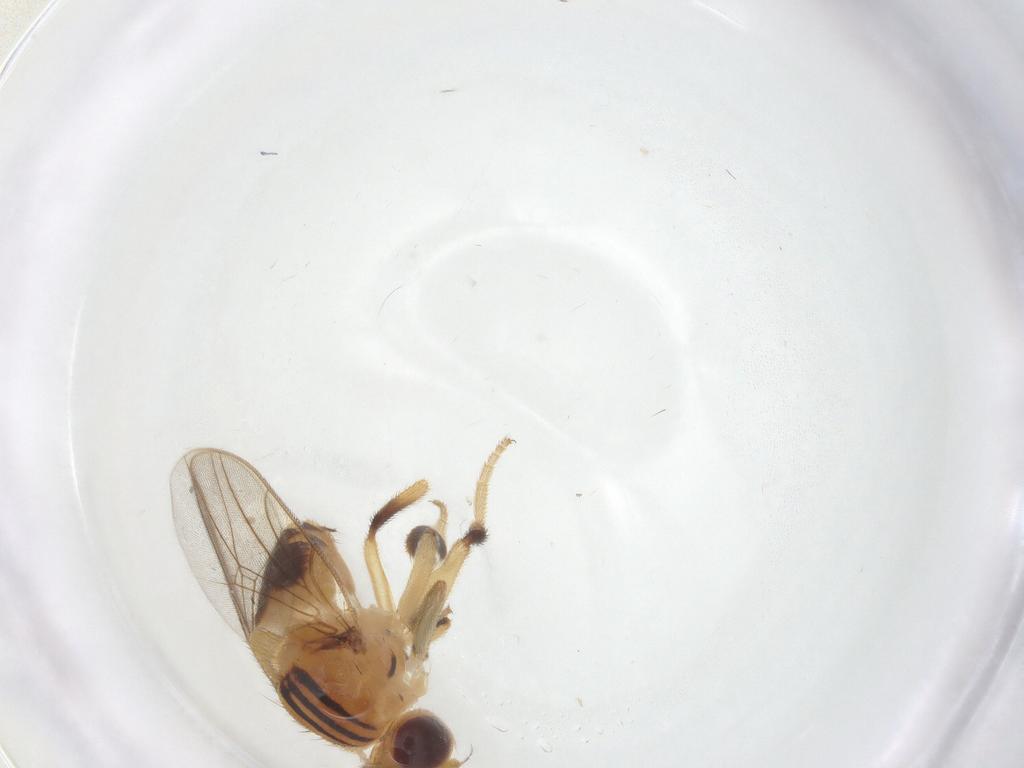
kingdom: Animalia
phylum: Arthropoda
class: Insecta
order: Diptera
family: Chloropidae
